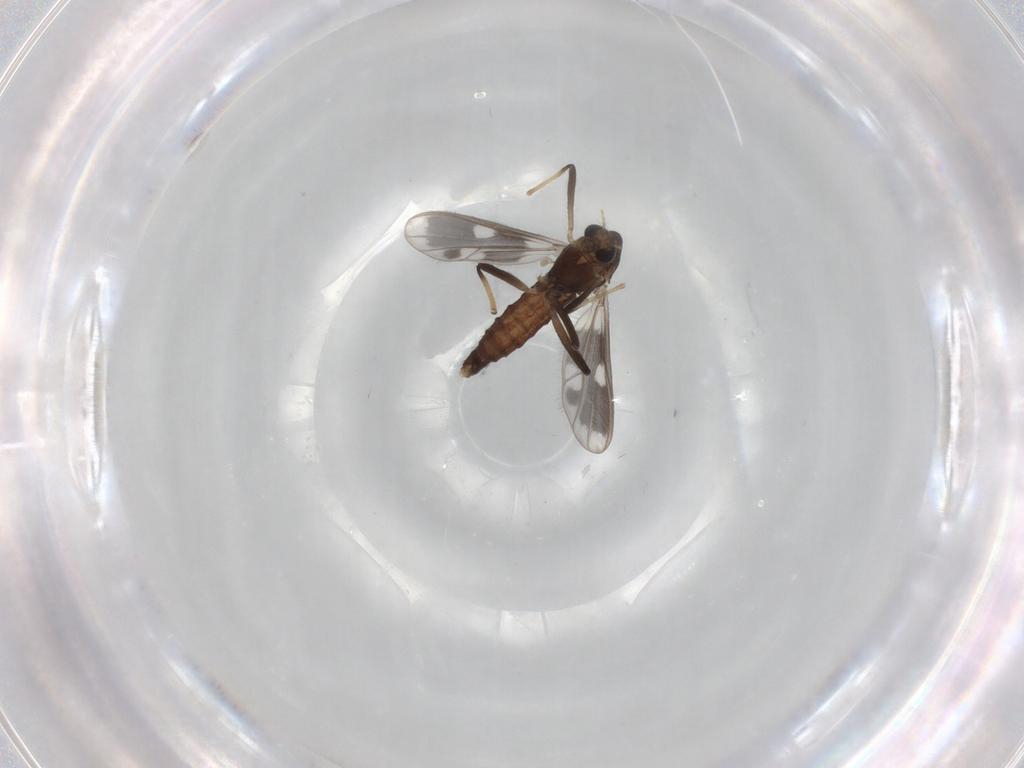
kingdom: Animalia
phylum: Arthropoda
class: Insecta
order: Diptera
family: Chironomidae
